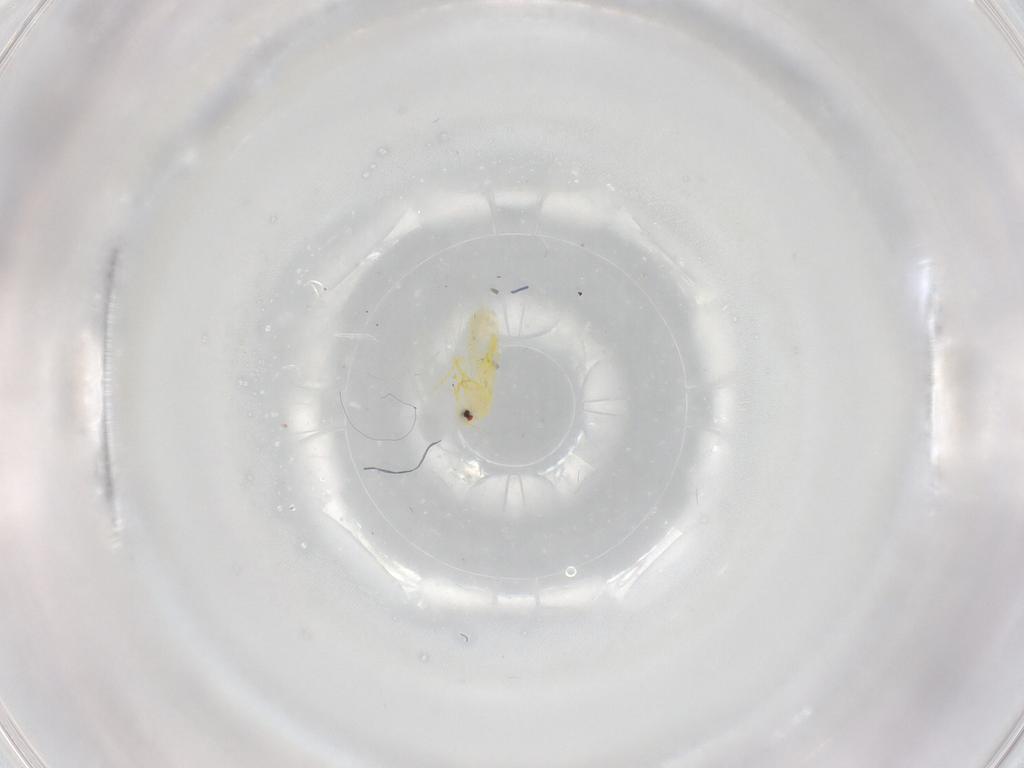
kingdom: Animalia
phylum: Arthropoda
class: Insecta
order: Hemiptera
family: Aleyrodidae
